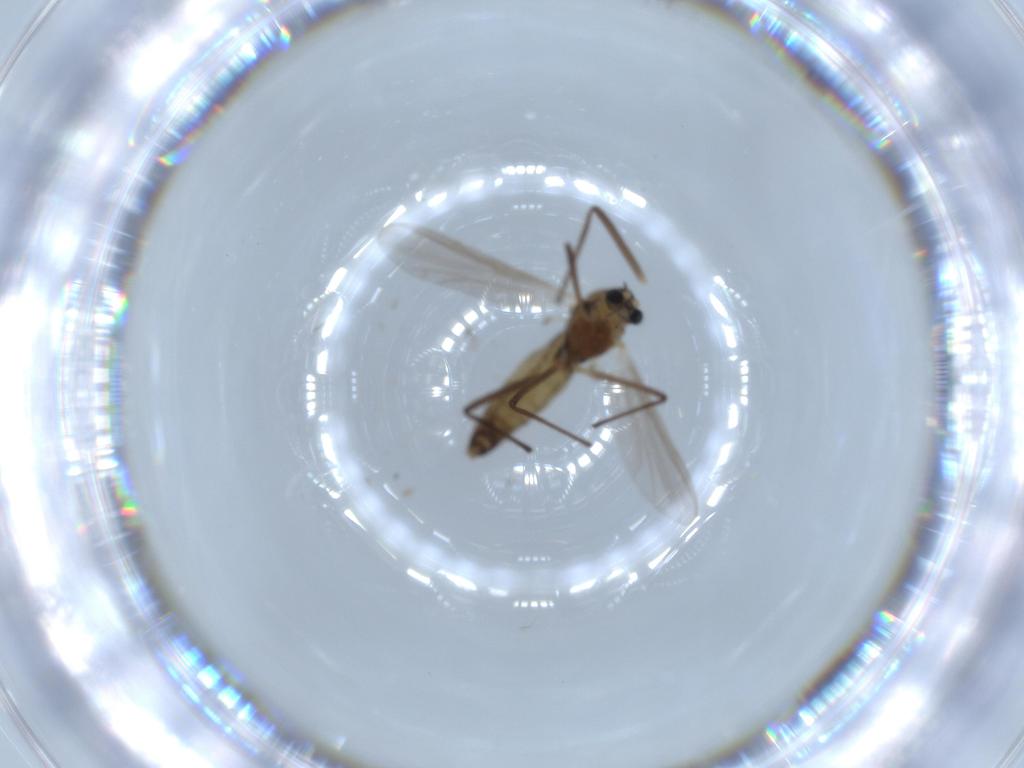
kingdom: Animalia
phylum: Arthropoda
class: Insecta
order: Diptera
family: Chironomidae
